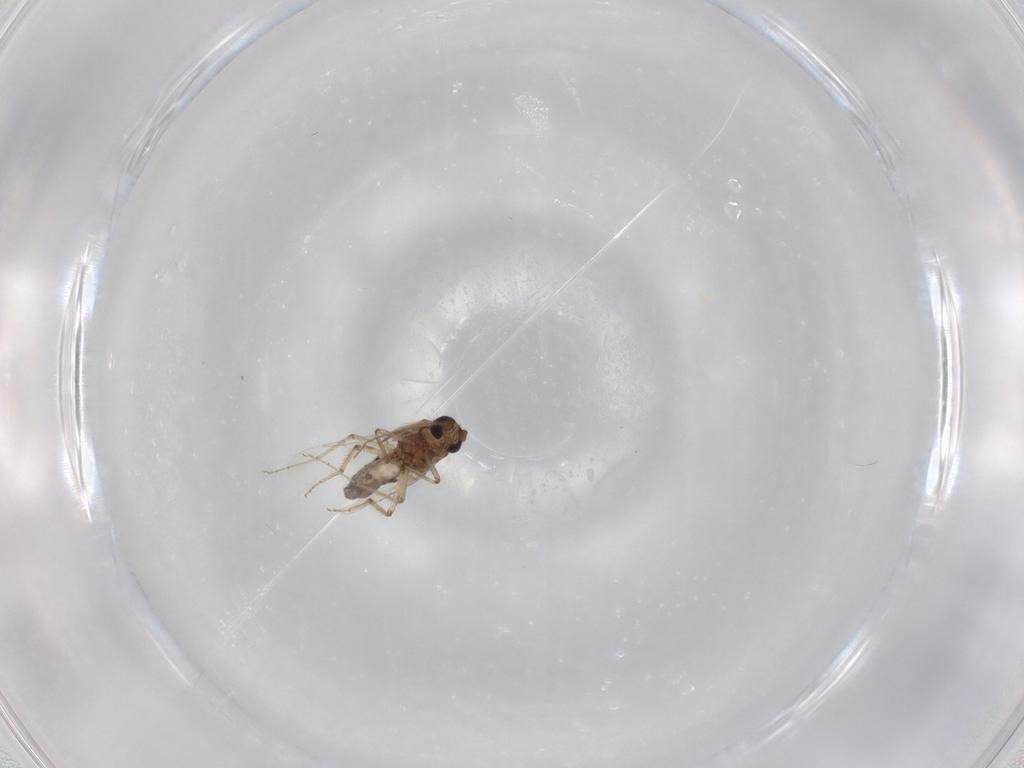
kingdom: Animalia
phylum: Arthropoda
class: Insecta
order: Diptera
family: Ceratopogonidae
